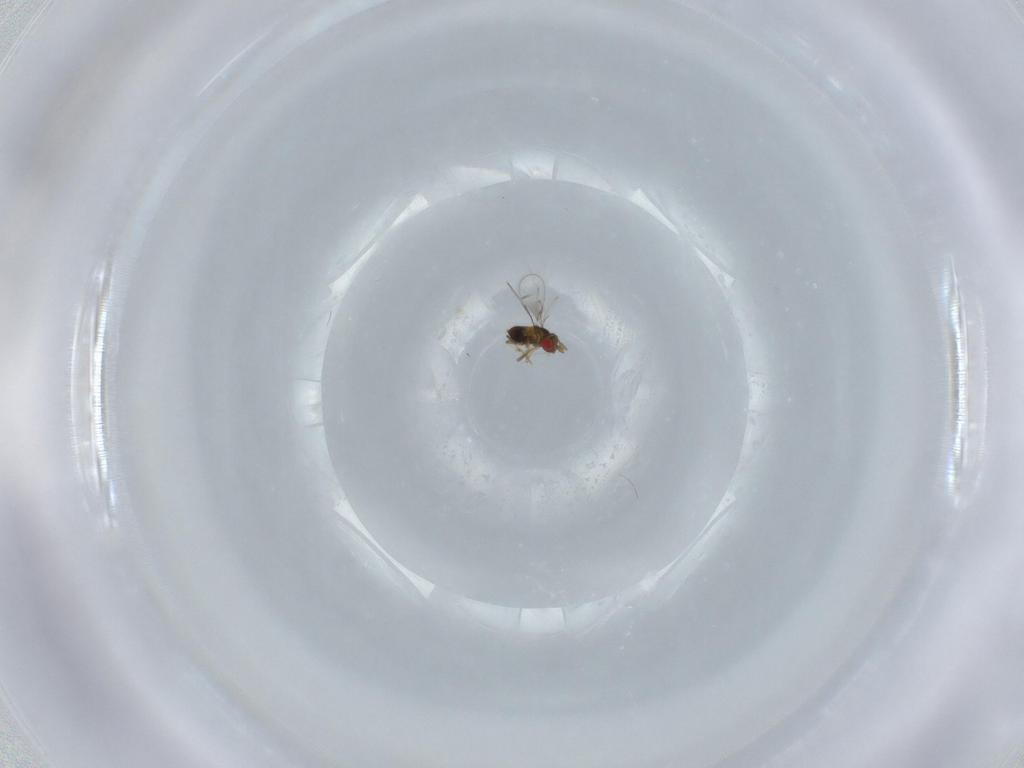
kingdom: Animalia
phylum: Arthropoda
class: Insecta
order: Hymenoptera
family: Trichogrammatidae
